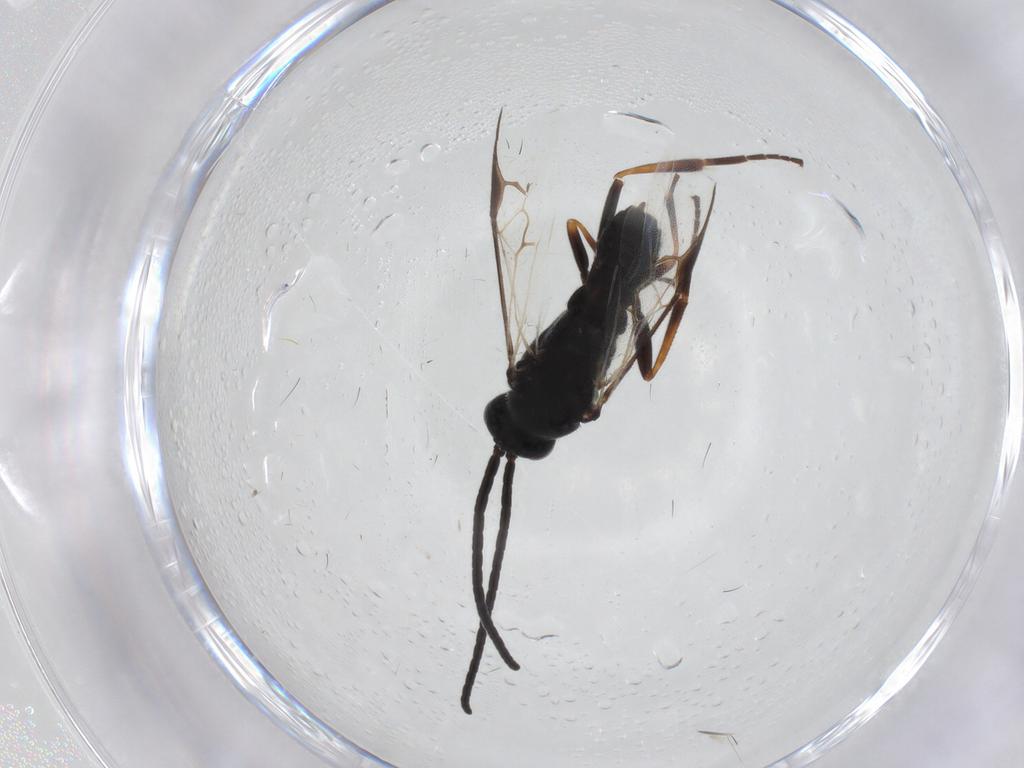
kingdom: Animalia
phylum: Arthropoda
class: Insecta
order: Hymenoptera
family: Braconidae
